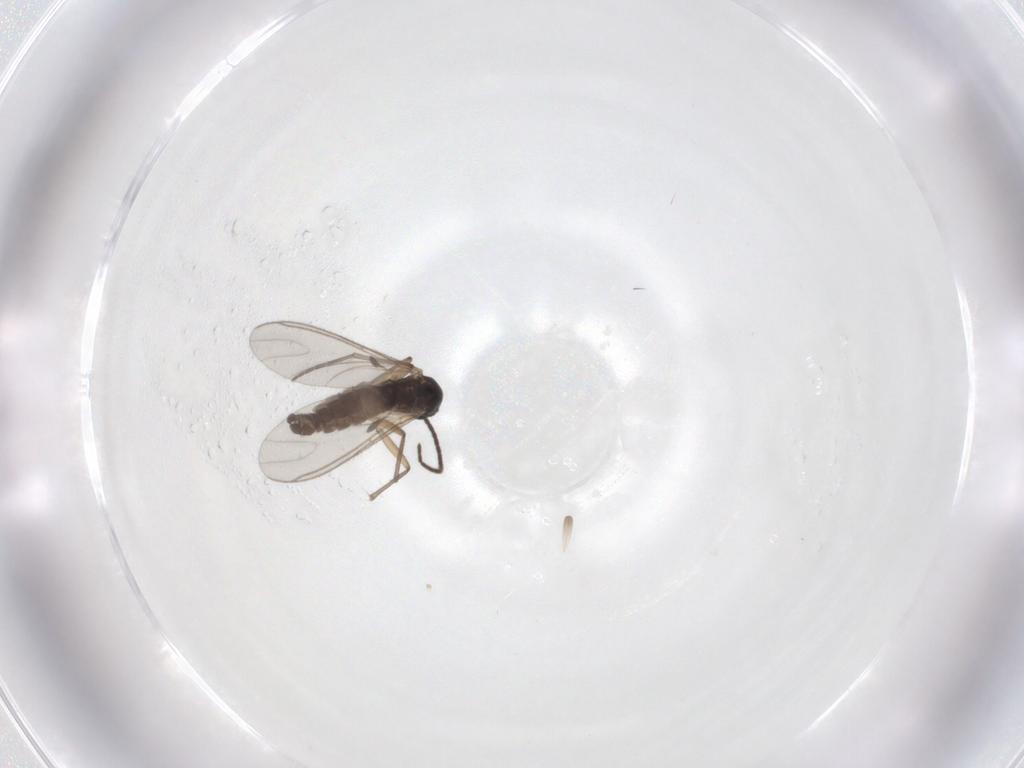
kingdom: Animalia
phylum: Arthropoda
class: Insecta
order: Diptera
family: Sciaridae
